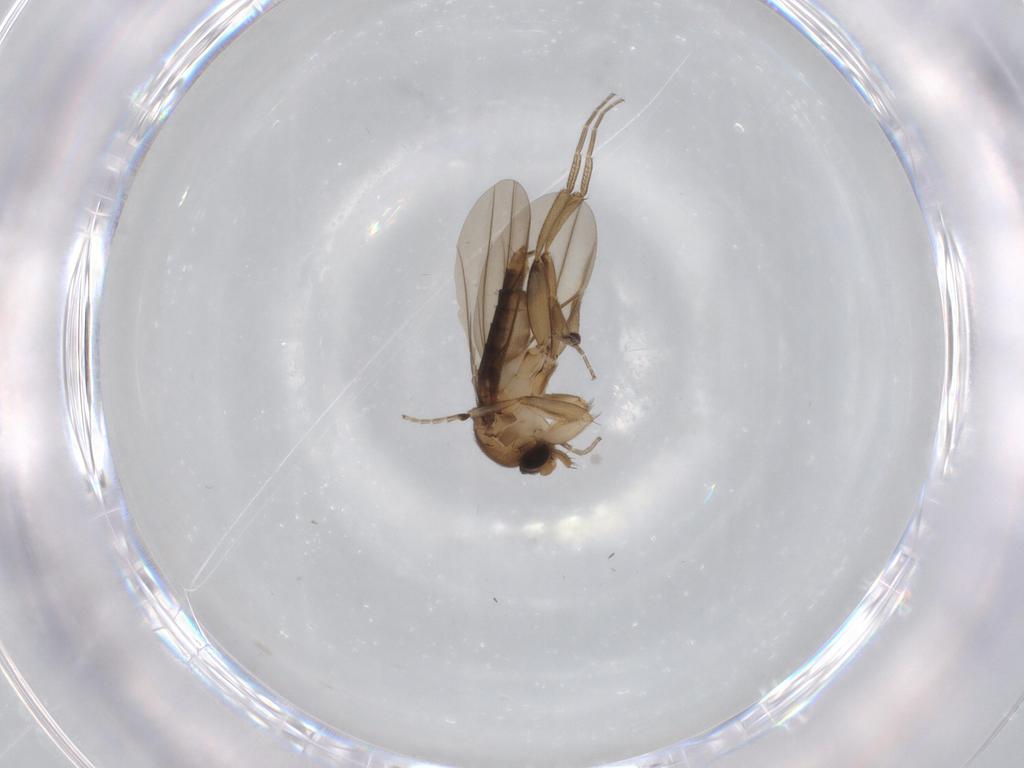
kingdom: Animalia
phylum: Arthropoda
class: Insecta
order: Diptera
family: Phoridae
